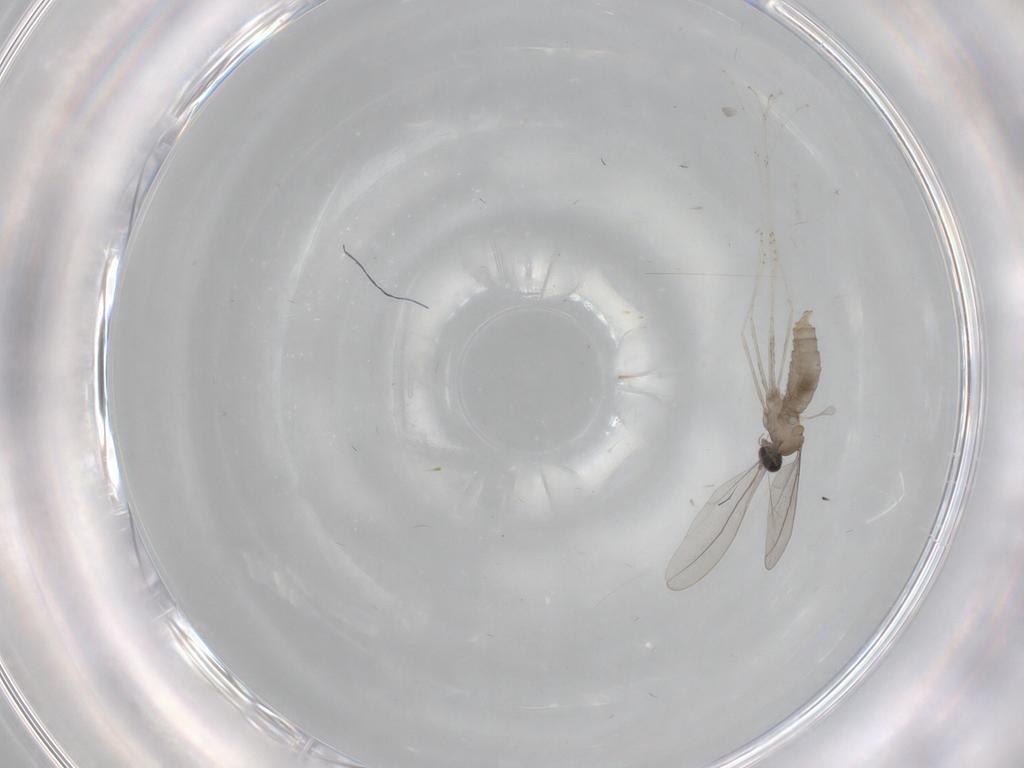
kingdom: Animalia
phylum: Arthropoda
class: Insecta
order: Diptera
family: Cecidomyiidae
